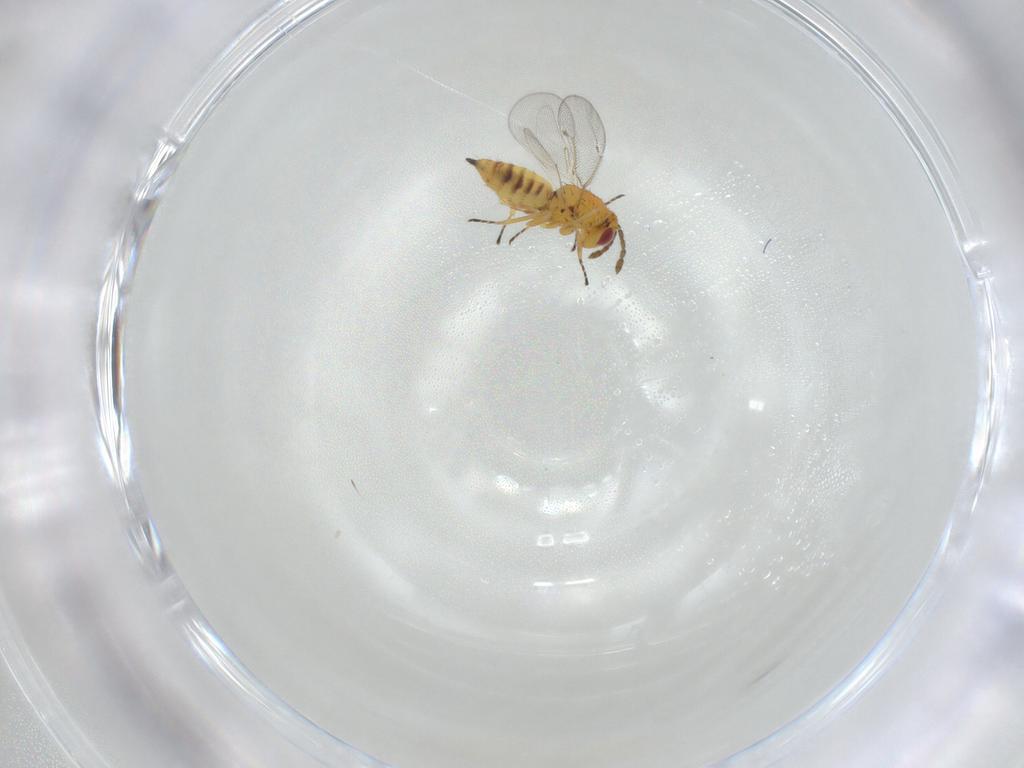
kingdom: Animalia
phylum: Arthropoda
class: Insecta
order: Hymenoptera
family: Eulophidae
